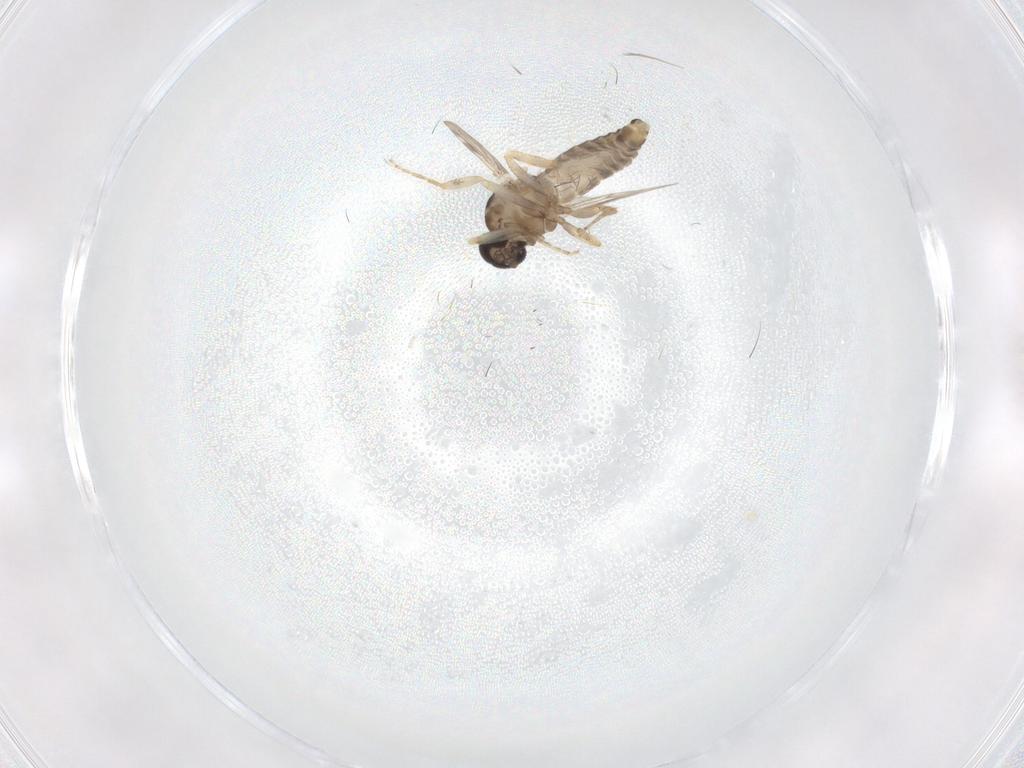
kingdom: Animalia
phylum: Arthropoda
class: Insecta
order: Diptera
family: Ceratopogonidae
